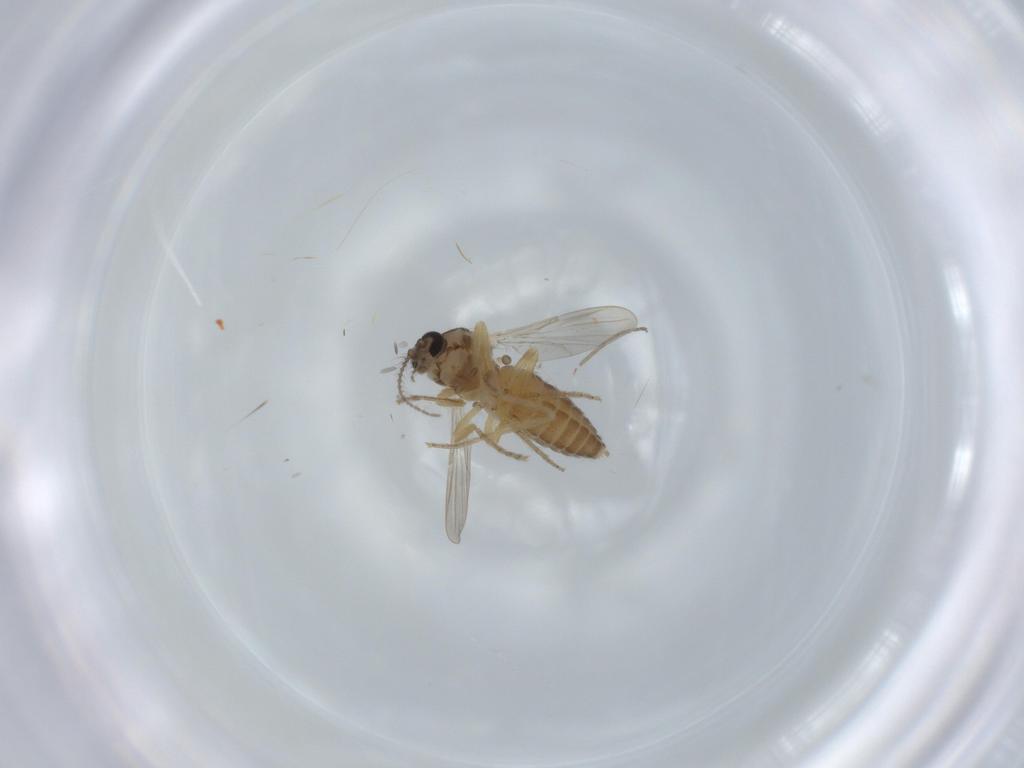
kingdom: Animalia
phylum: Arthropoda
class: Insecta
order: Diptera
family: Ceratopogonidae
